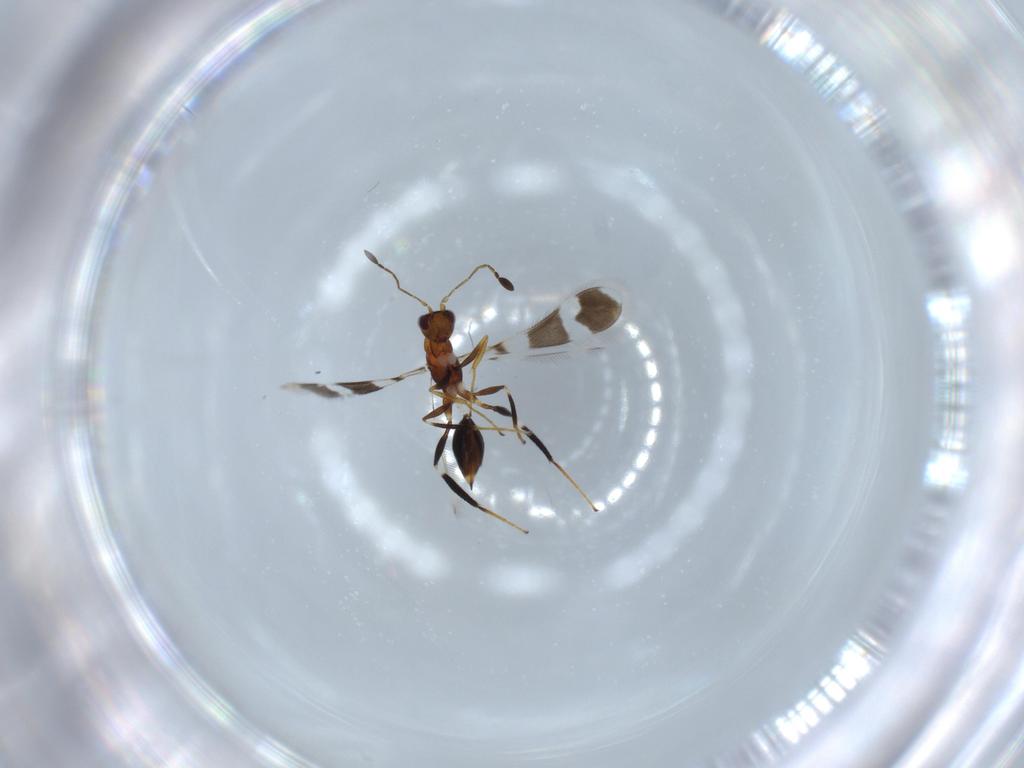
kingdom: Animalia
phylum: Arthropoda
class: Insecta
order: Hymenoptera
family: Mymaridae
